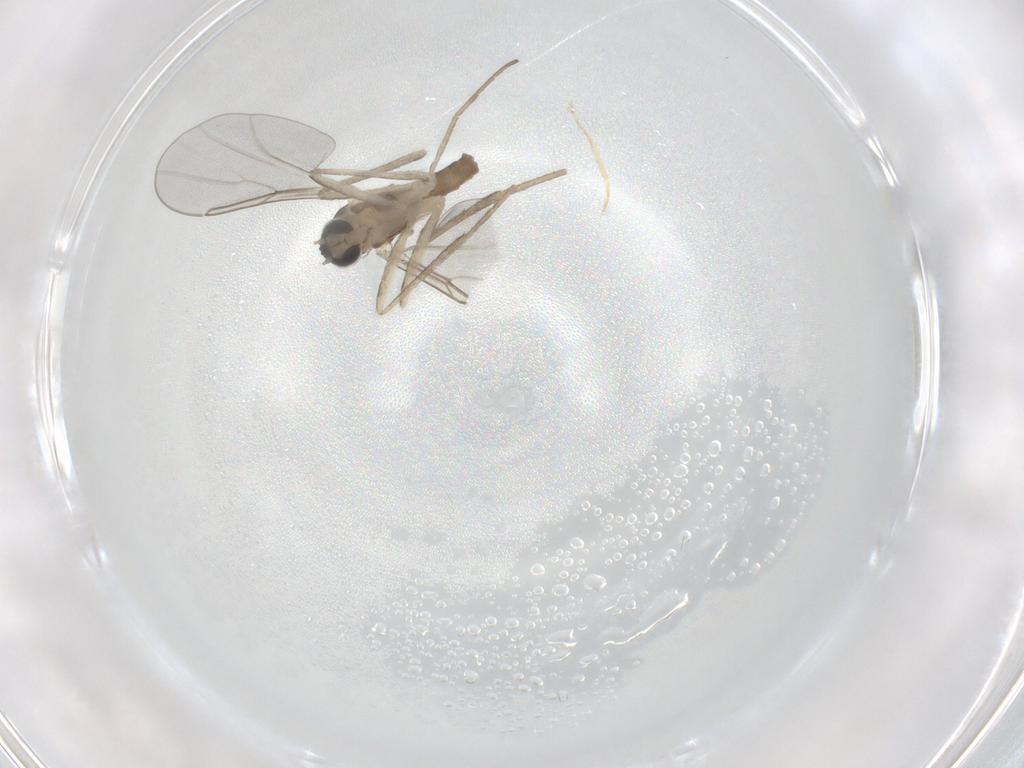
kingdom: Animalia
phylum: Arthropoda
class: Insecta
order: Diptera
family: Cecidomyiidae
